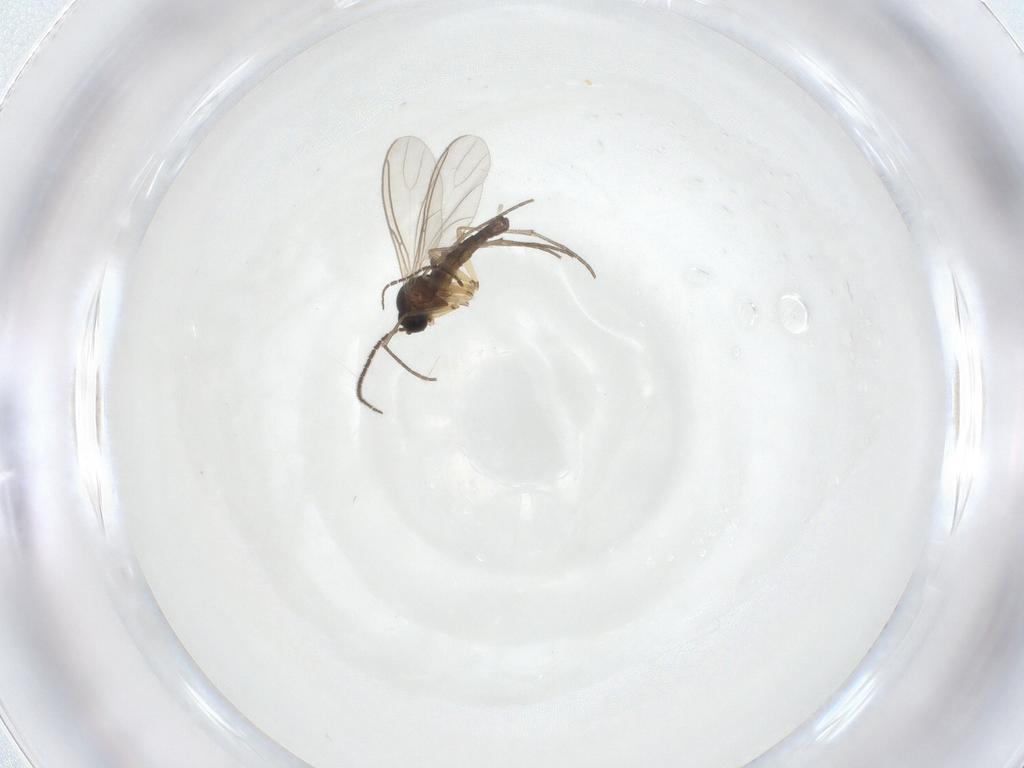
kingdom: Animalia
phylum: Arthropoda
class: Insecta
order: Diptera
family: Sciaridae
